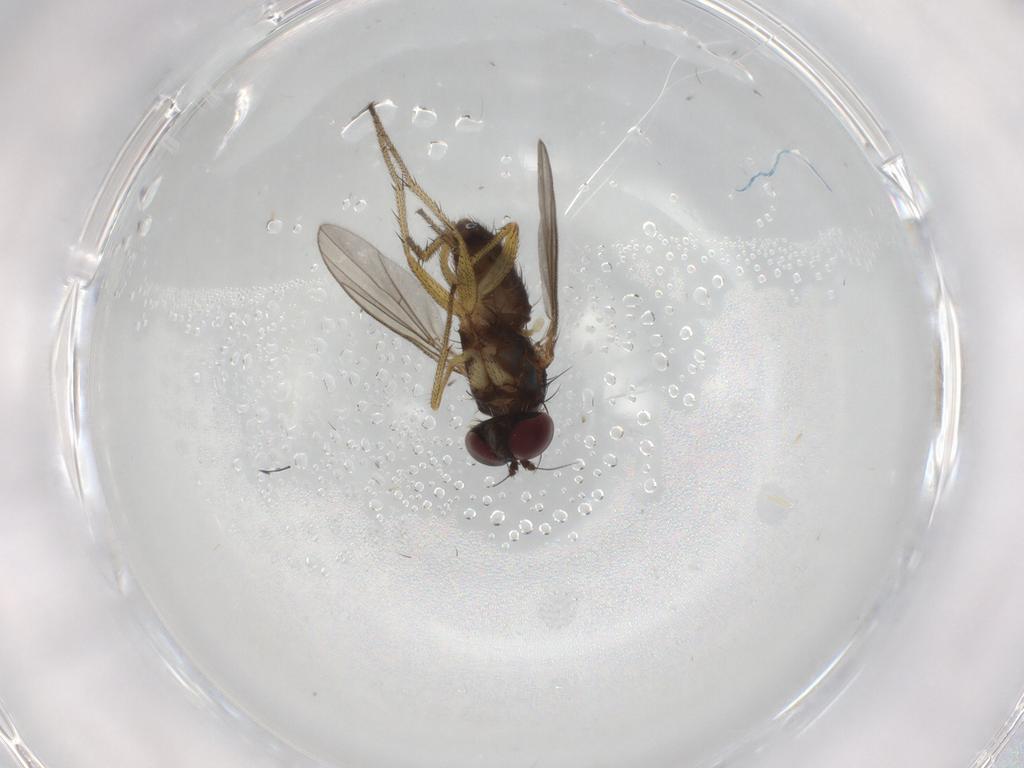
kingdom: Animalia
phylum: Arthropoda
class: Insecta
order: Diptera
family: Dolichopodidae
